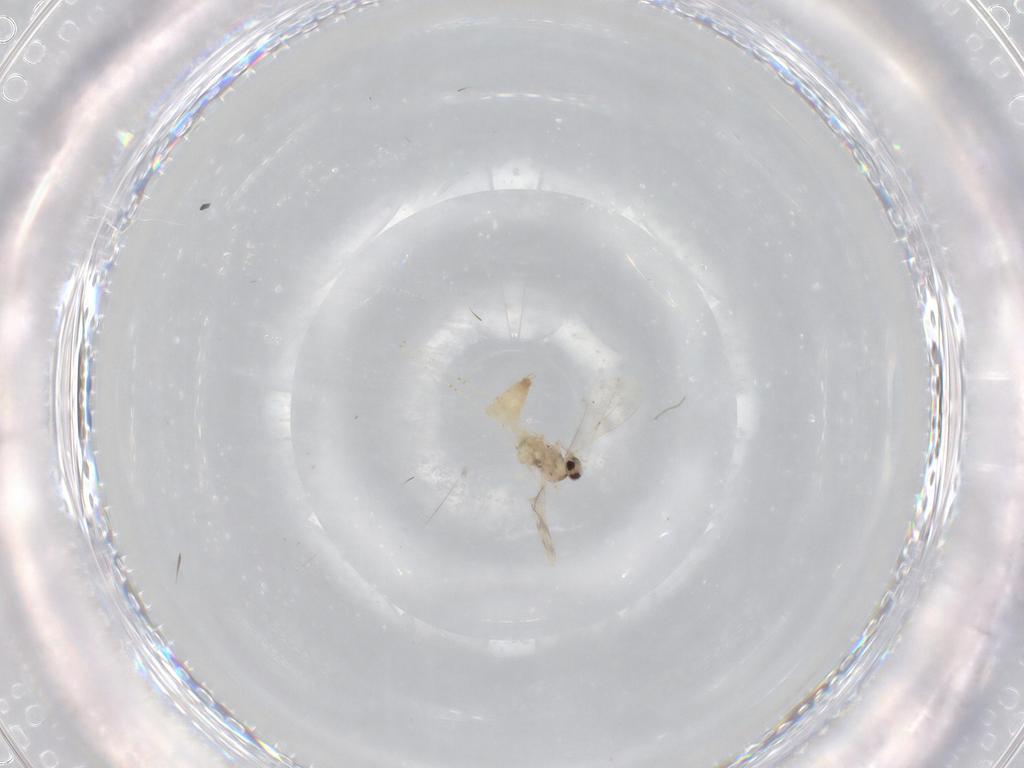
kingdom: Animalia
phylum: Arthropoda
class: Insecta
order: Diptera
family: Cecidomyiidae
